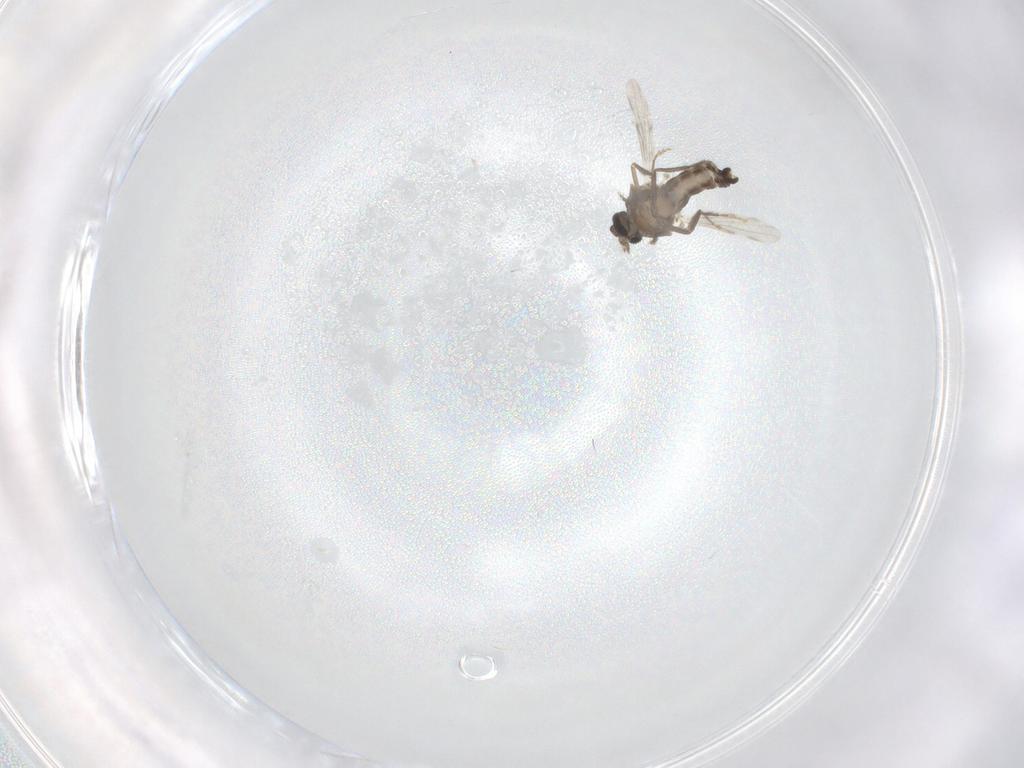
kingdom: Animalia
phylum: Arthropoda
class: Insecta
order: Diptera
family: Ceratopogonidae
